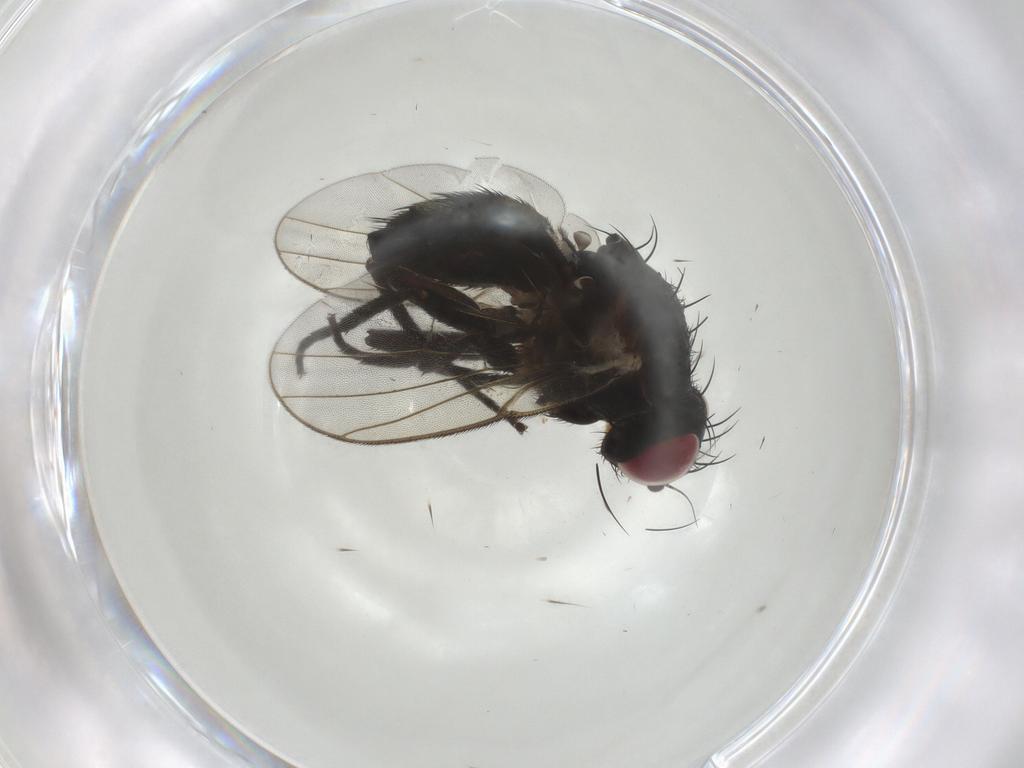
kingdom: Animalia
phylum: Arthropoda
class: Insecta
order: Diptera
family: Agromyzidae
